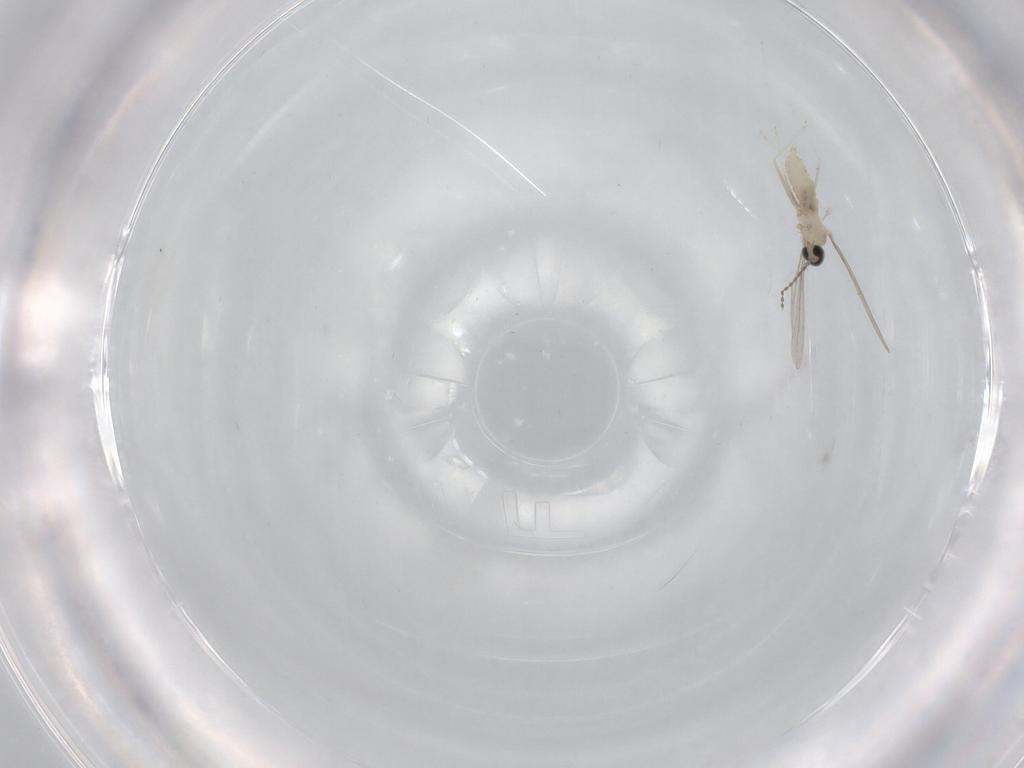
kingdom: Animalia
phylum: Arthropoda
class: Insecta
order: Diptera
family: Cecidomyiidae
